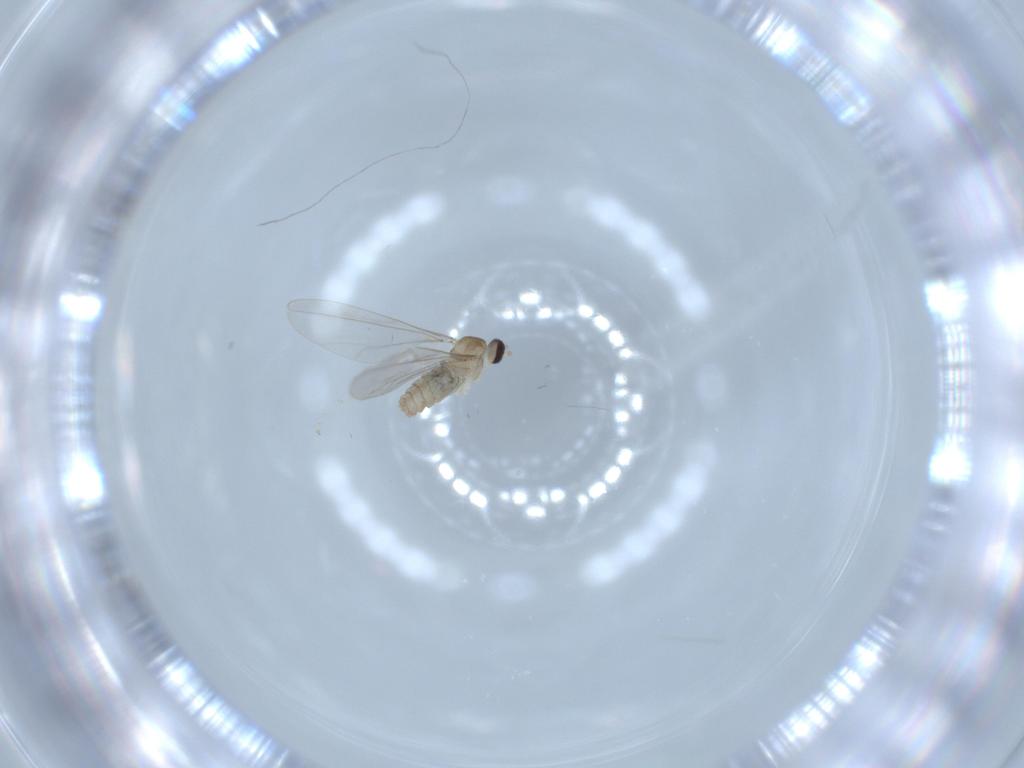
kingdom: Animalia
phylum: Arthropoda
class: Insecta
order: Diptera
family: Cecidomyiidae
